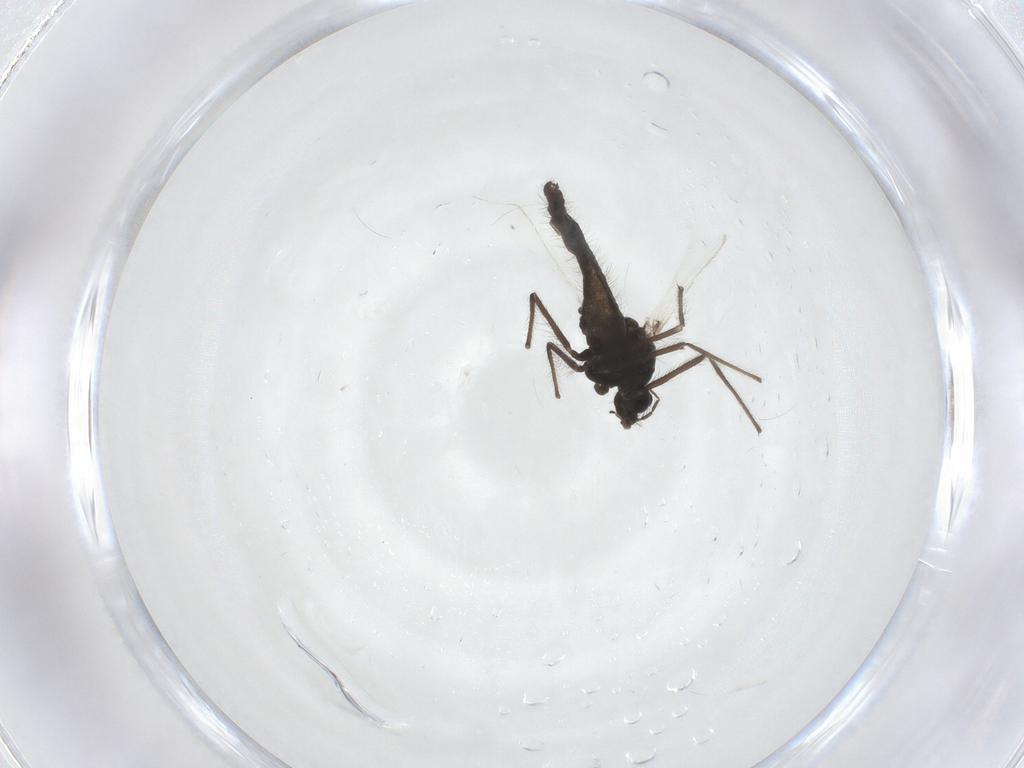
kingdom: Animalia
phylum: Arthropoda
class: Insecta
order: Diptera
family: Chironomidae
